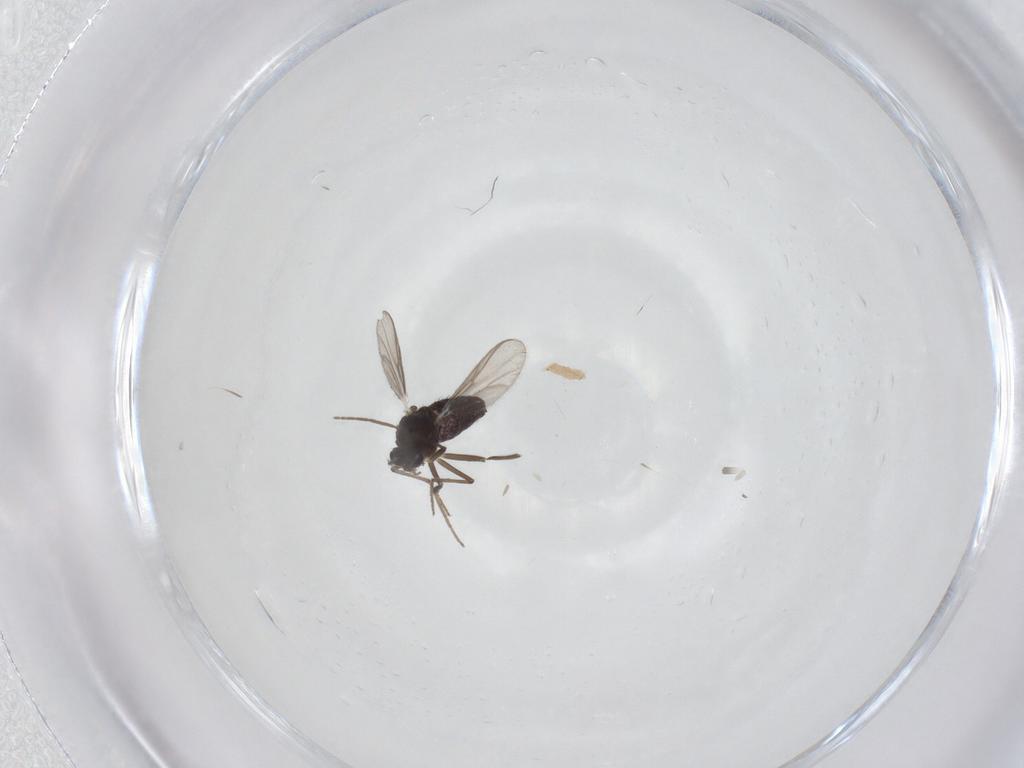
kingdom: Animalia
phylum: Arthropoda
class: Insecta
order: Diptera
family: Chironomidae
